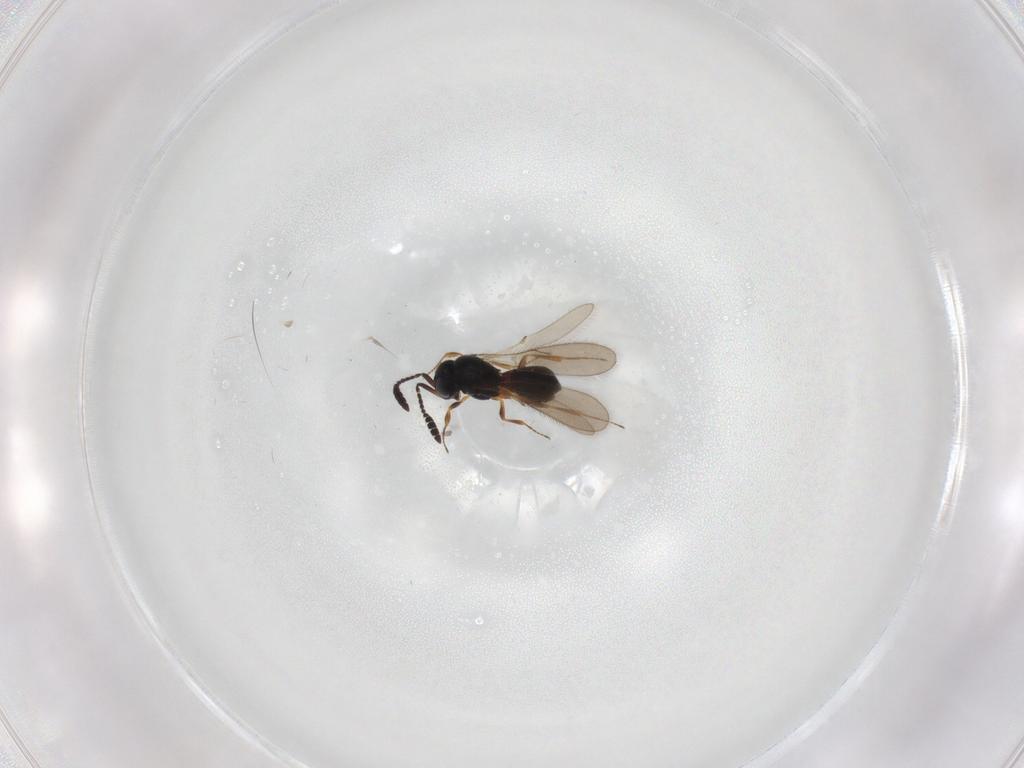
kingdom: Animalia
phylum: Arthropoda
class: Insecta
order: Hymenoptera
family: Scelionidae
